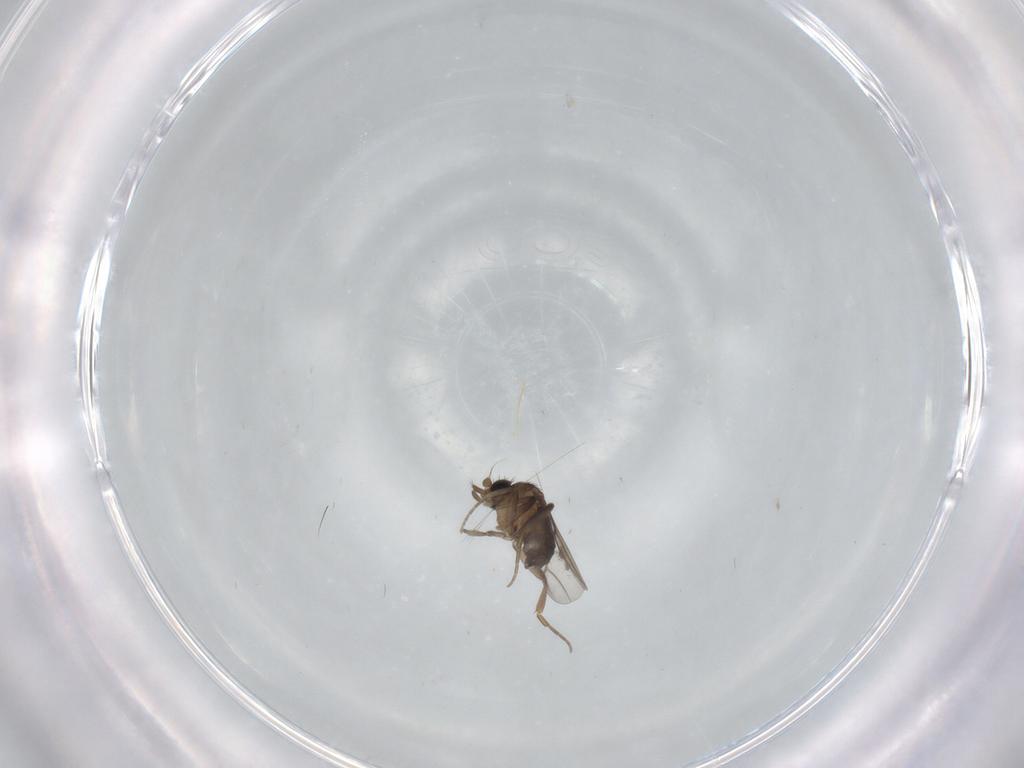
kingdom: Animalia
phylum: Arthropoda
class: Insecta
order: Diptera
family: Phoridae
